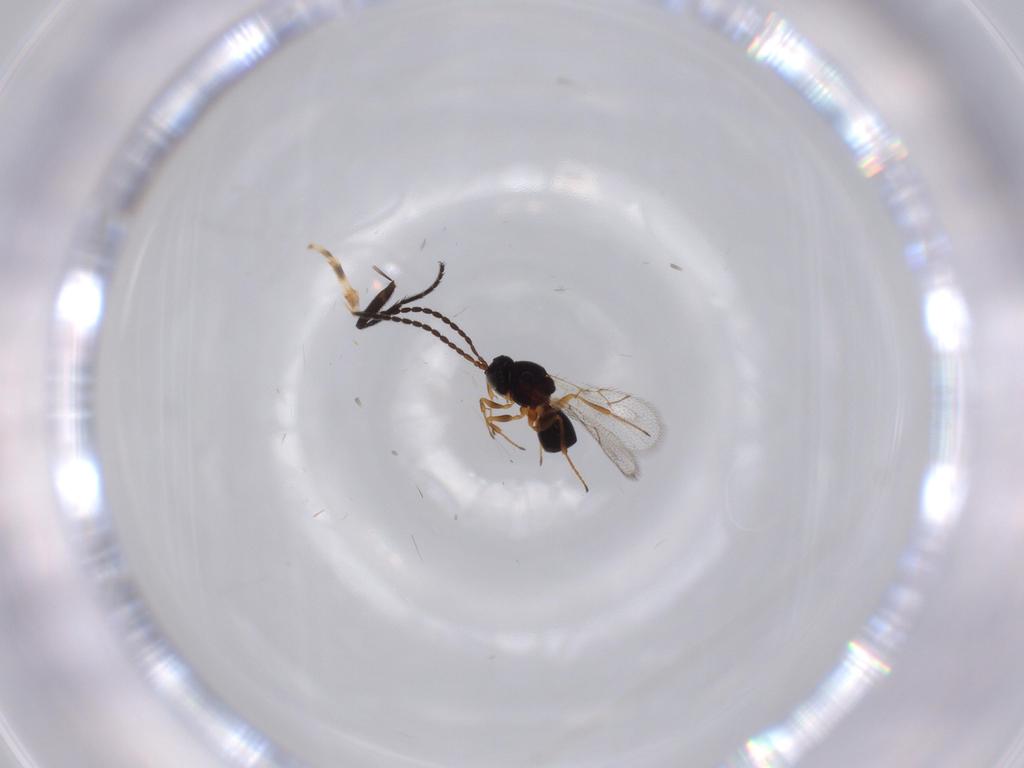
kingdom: Animalia
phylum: Arthropoda
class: Insecta
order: Hymenoptera
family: Figitidae
